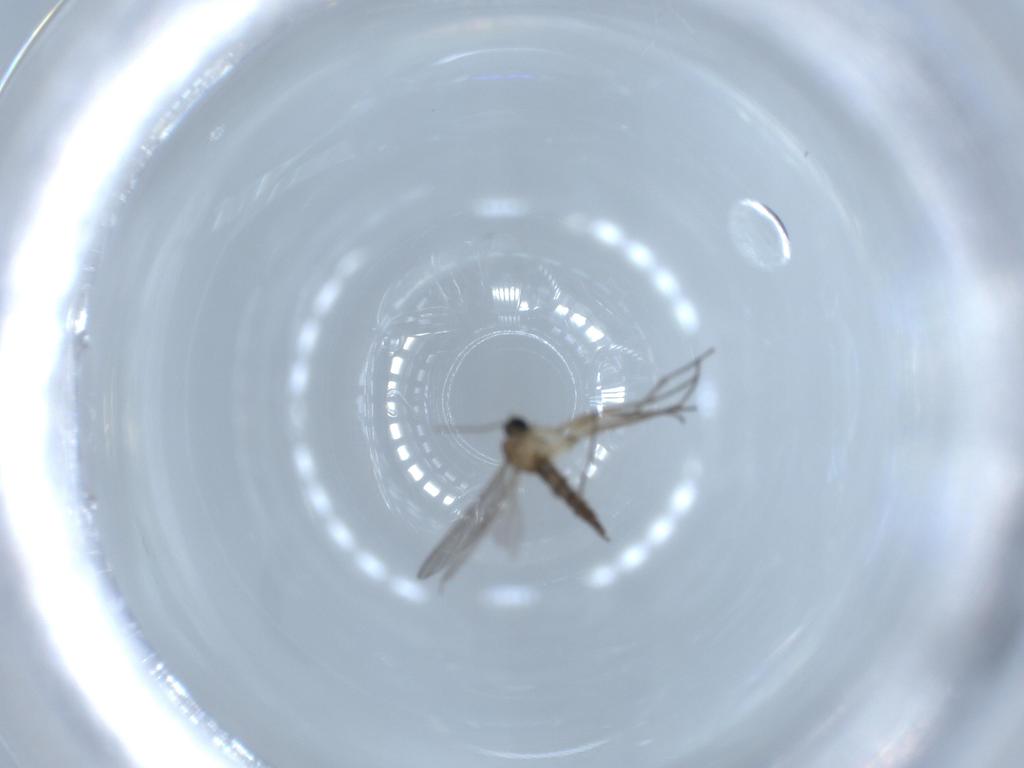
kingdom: Animalia
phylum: Arthropoda
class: Insecta
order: Diptera
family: Sciaridae
